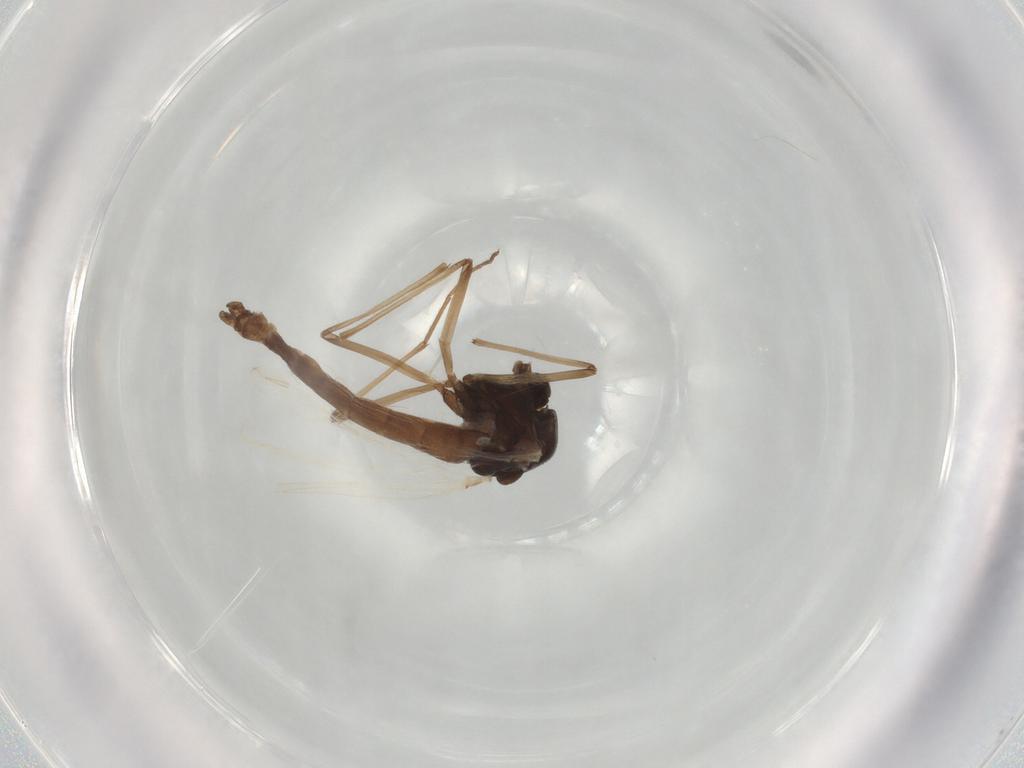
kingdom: Animalia
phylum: Arthropoda
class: Insecta
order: Diptera
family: Chironomidae
